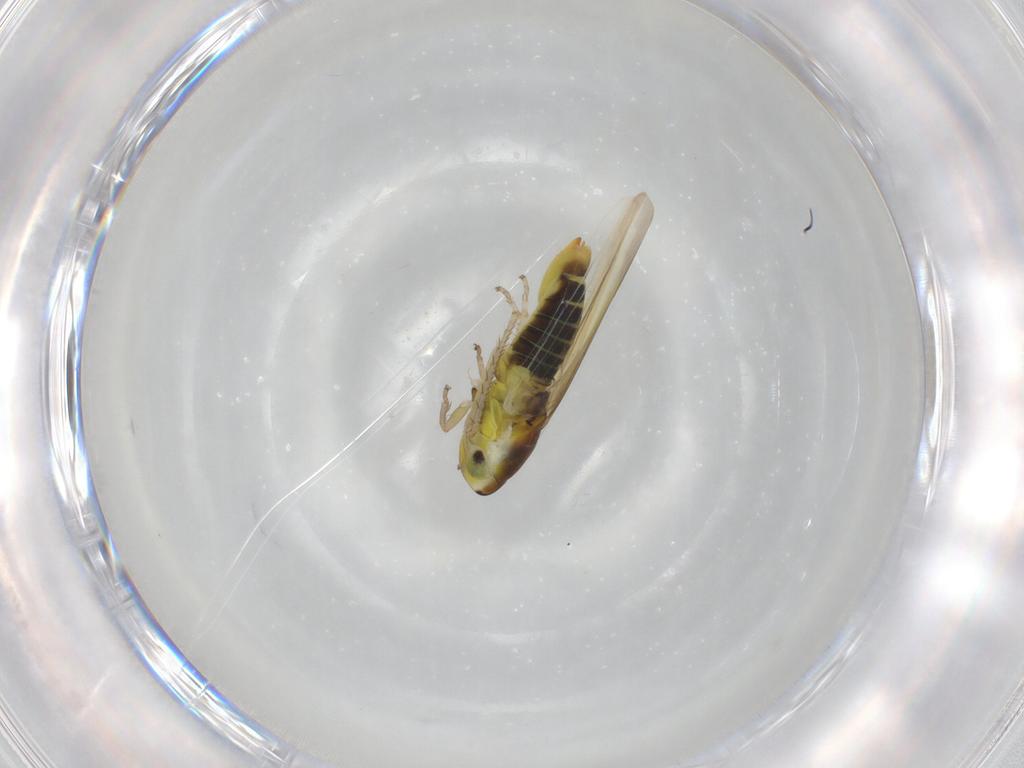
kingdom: Animalia
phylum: Arthropoda
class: Insecta
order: Hemiptera
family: Cicadellidae
